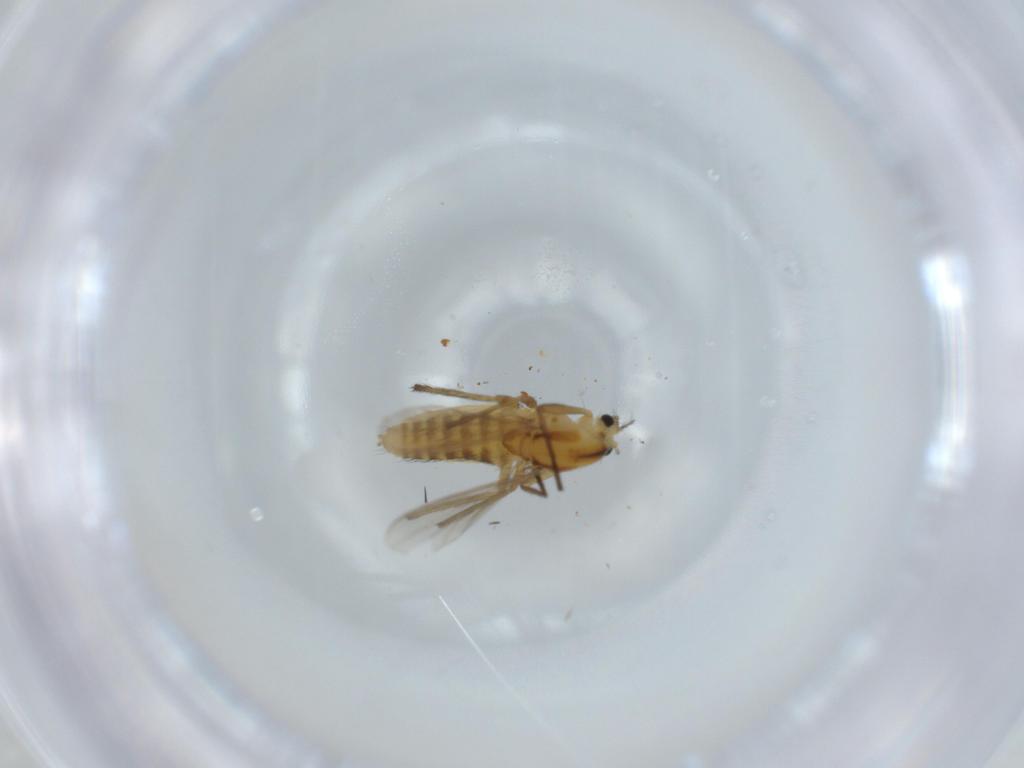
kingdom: Animalia
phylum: Arthropoda
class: Insecta
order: Diptera
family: Chironomidae
